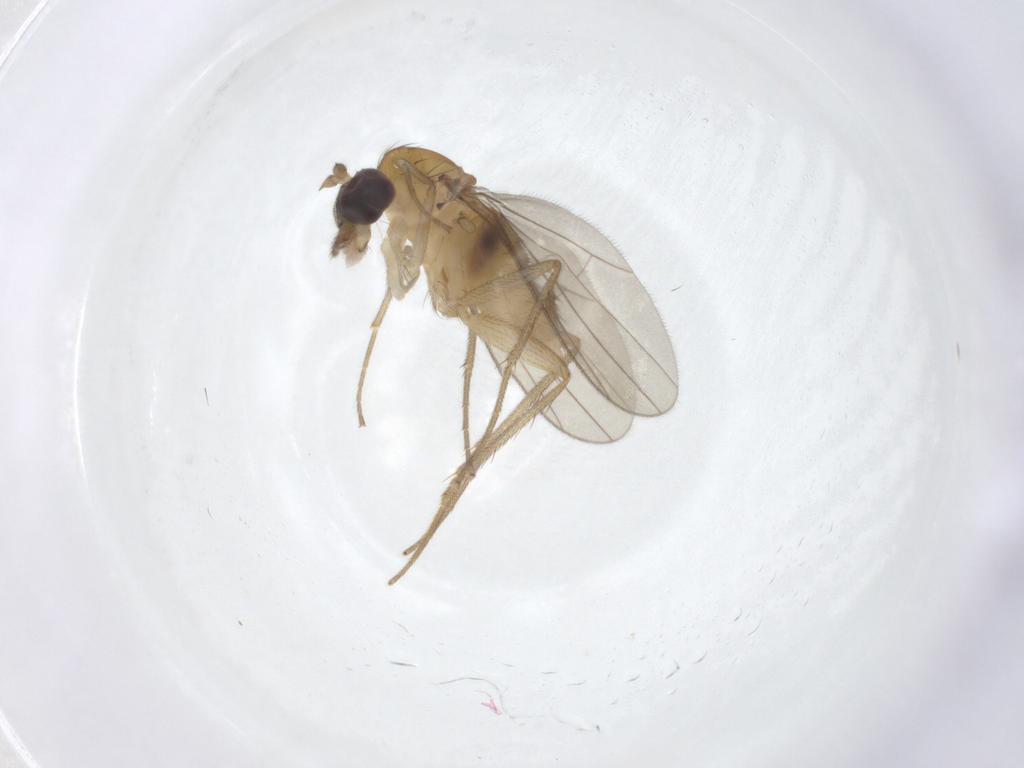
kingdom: Animalia
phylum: Arthropoda
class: Insecta
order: Diptera
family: Dolichopodidae
